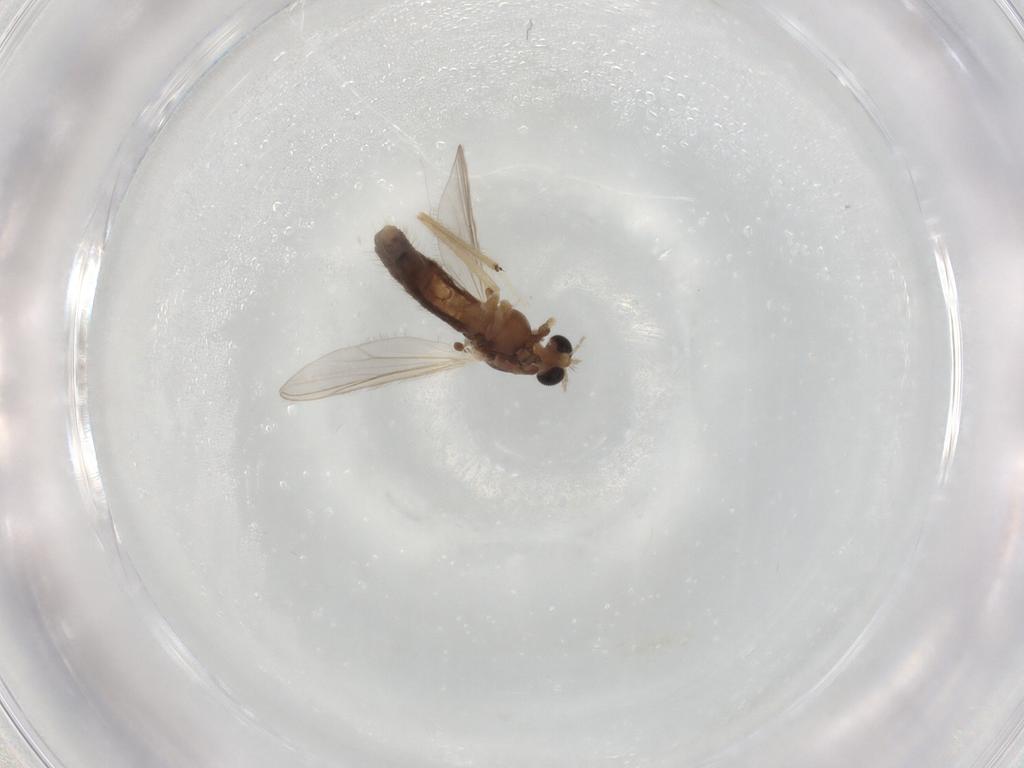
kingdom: Animalia
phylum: Arthropoda
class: Insecta
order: Diptera
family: Chironomidae
